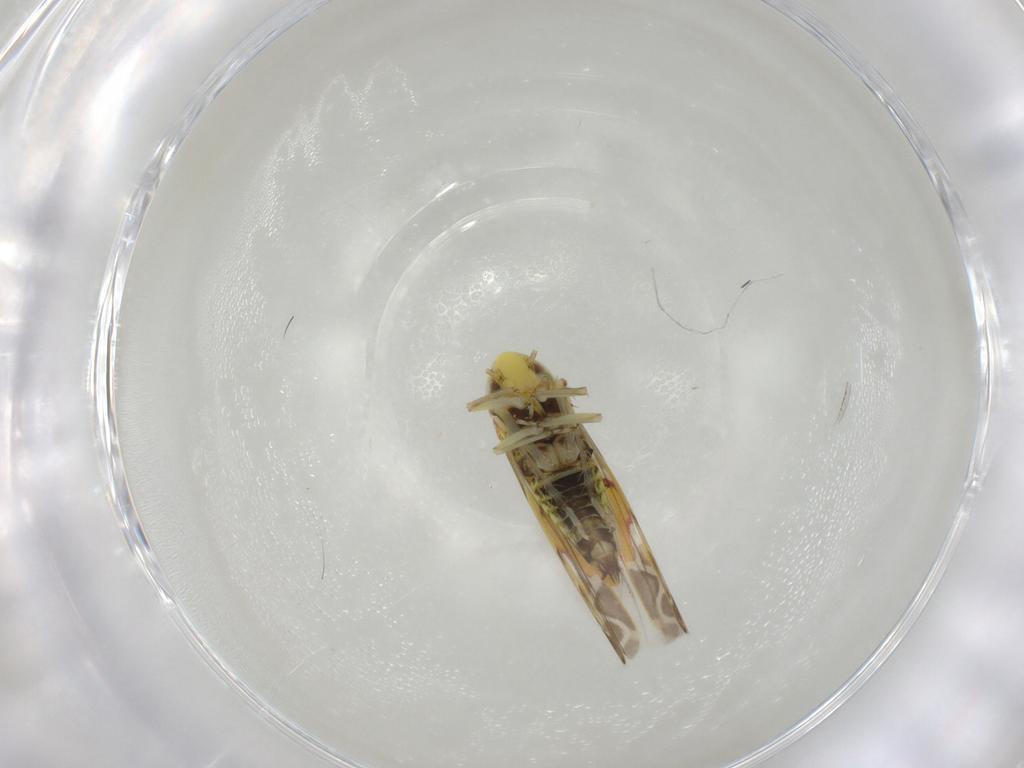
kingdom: Animalia
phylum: Arthropoda
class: Insecta
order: Hemiptera
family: Cicadellidae
